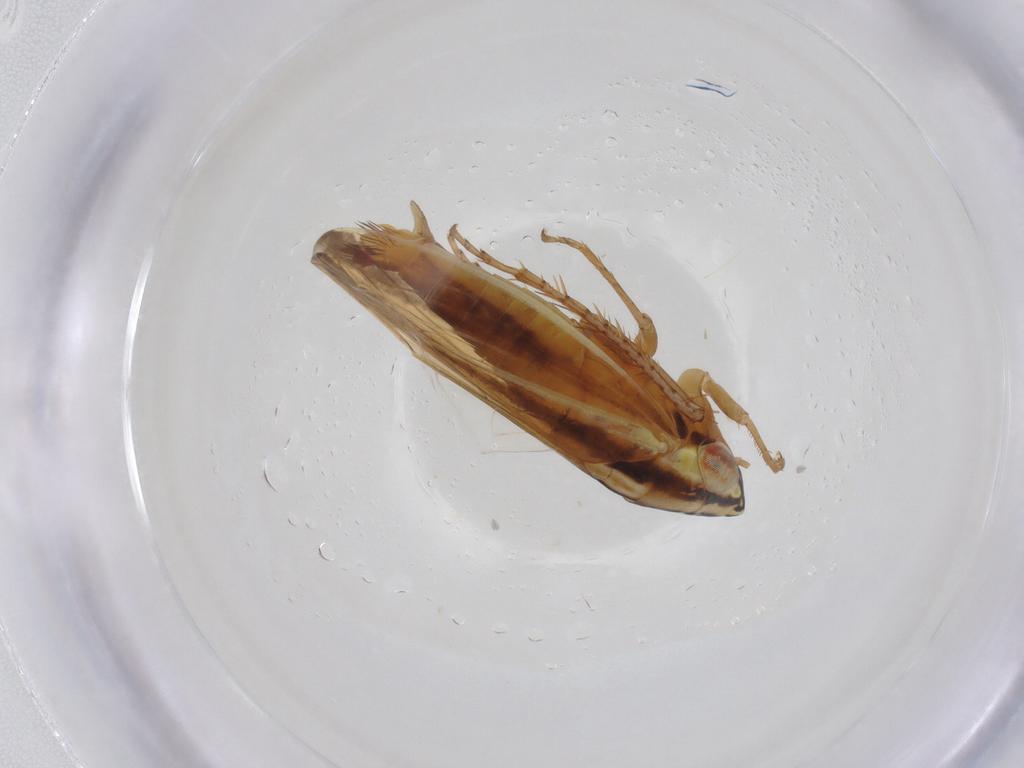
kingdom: Animalia
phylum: Arthropoda
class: Insecta
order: Hemiptera
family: Cicadellidae
